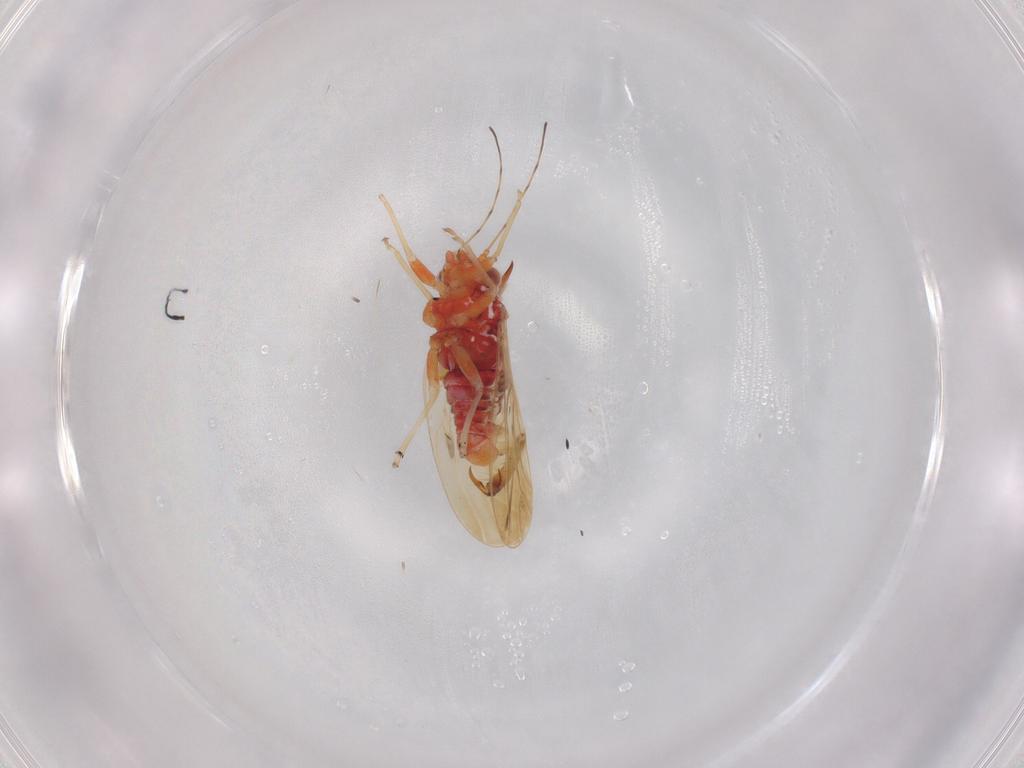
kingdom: Animalia
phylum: Arthropoda
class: Insecta
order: Hemiptera
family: Psyllidae
